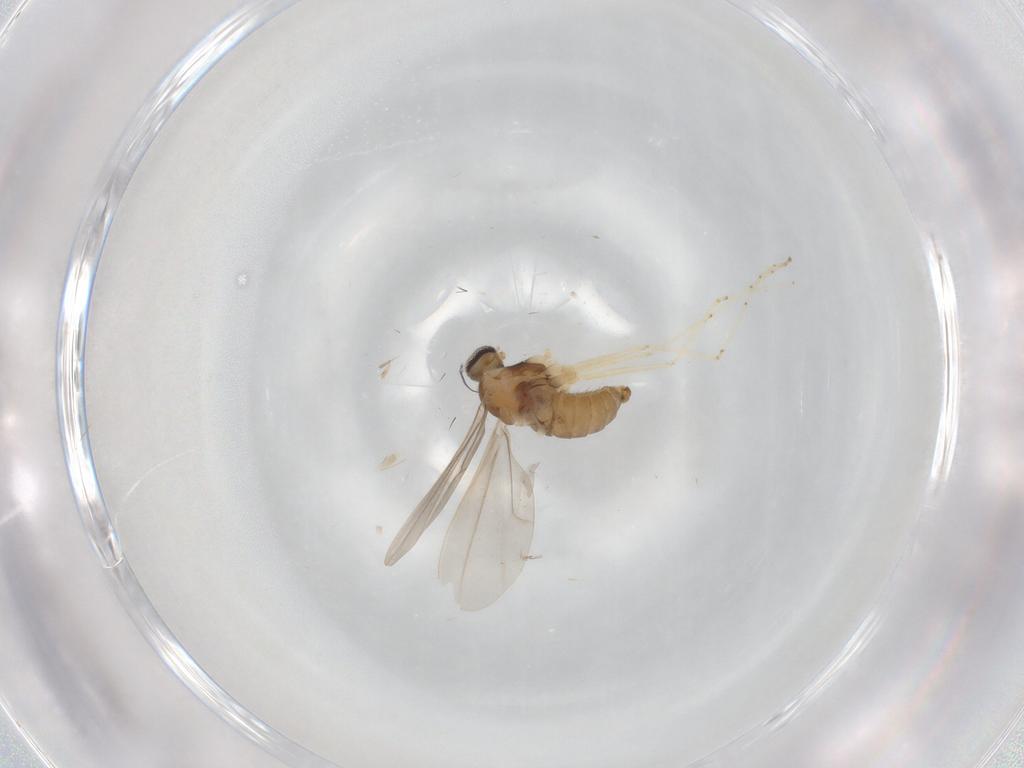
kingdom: Animalia
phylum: Arthropoda
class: Insecta
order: Diptera
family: Cecidomyiidae
